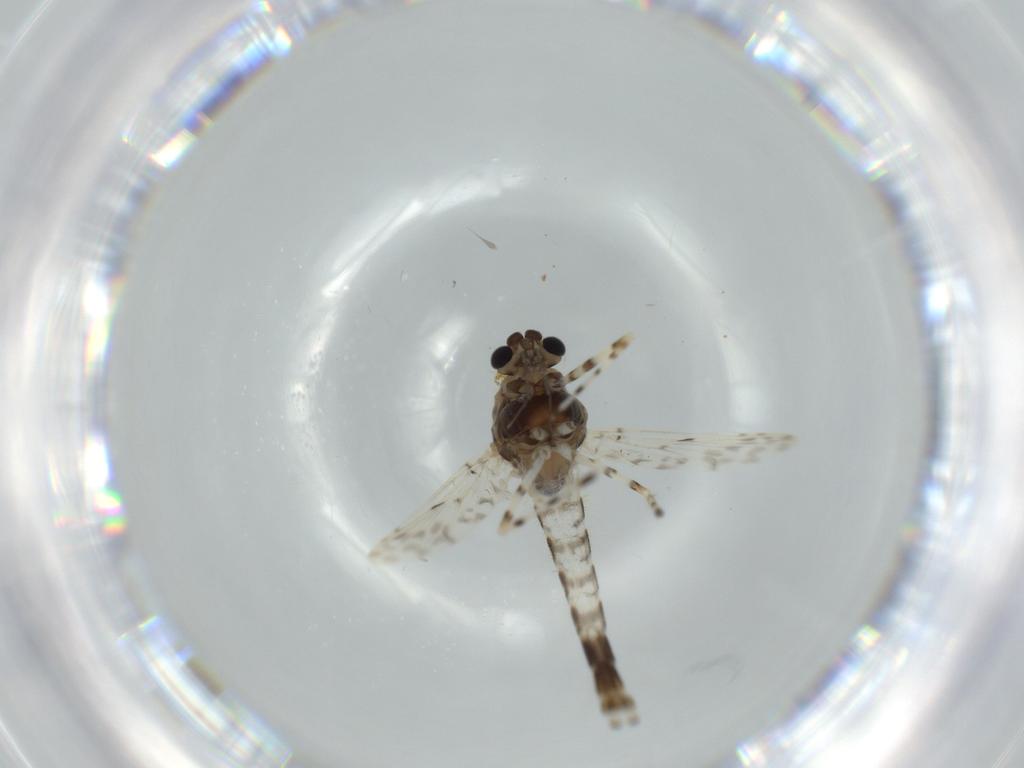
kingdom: Animalia
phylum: Arthropoda
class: Insecta
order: Diptera
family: Chironomidae
